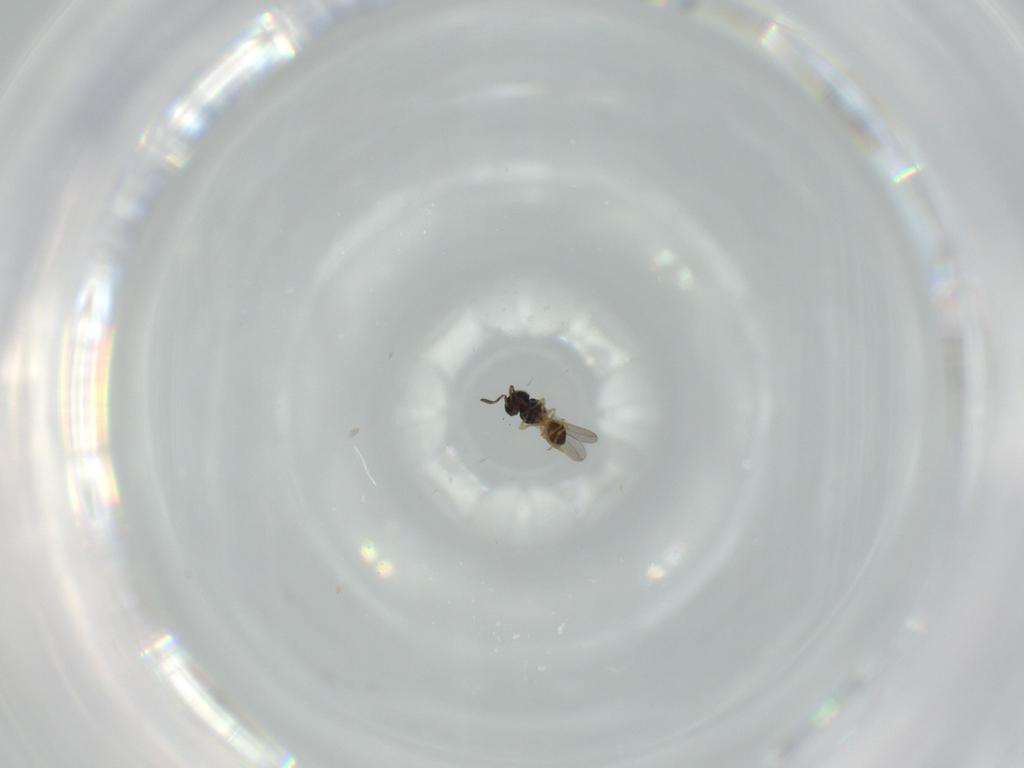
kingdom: Animalia
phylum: Arthropoda
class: Insecta
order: Hymenoptera
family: Scelionidae
